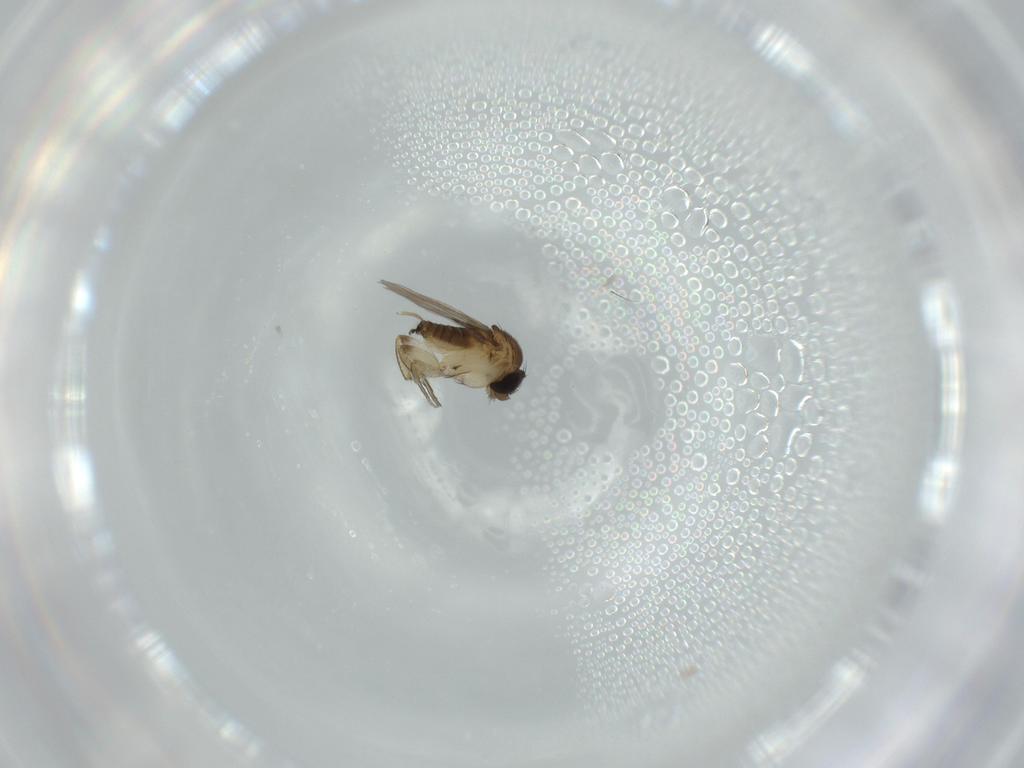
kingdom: Animalia
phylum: Arthropoda
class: Insecta
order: Diptera
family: Phoridae
